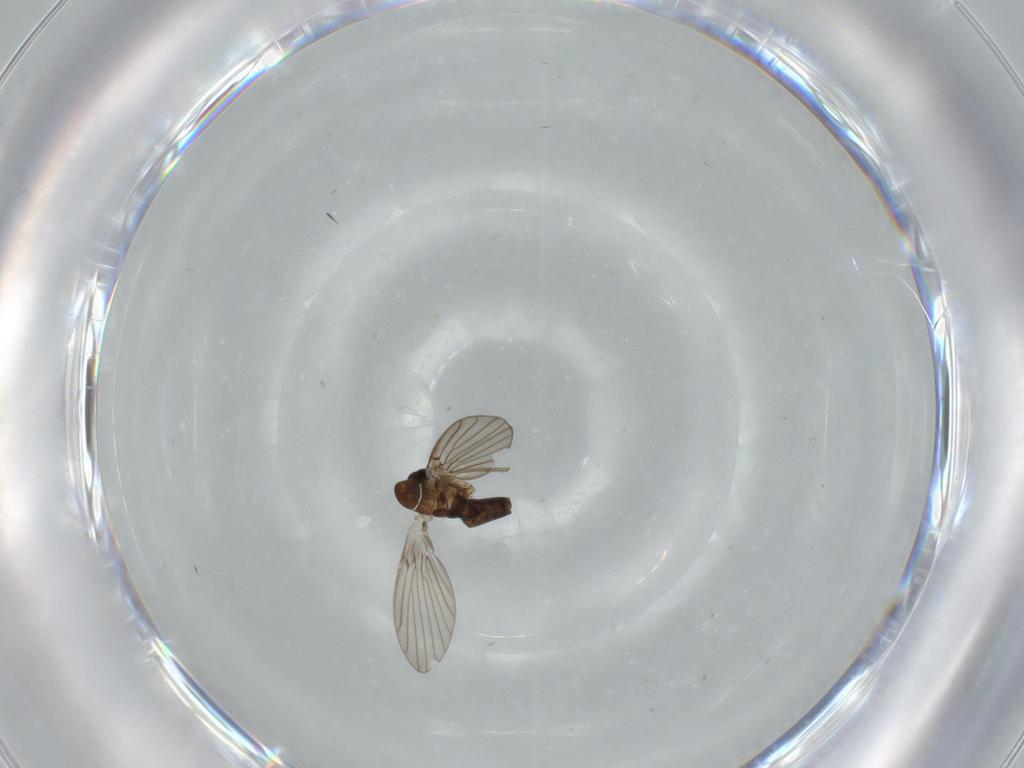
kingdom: Animalia
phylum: Arthropoda
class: Insecta
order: Diptera
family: Psychodidae
